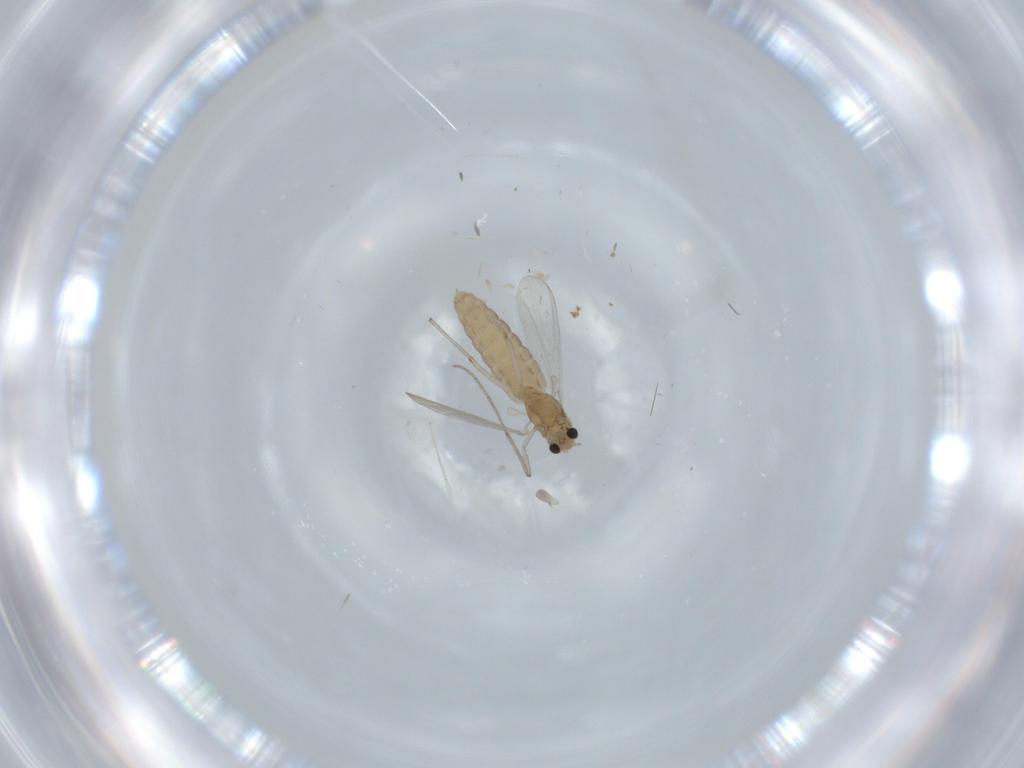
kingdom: Animalia
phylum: Arthropoda
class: Insecta
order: Diptera
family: Chironomidae
